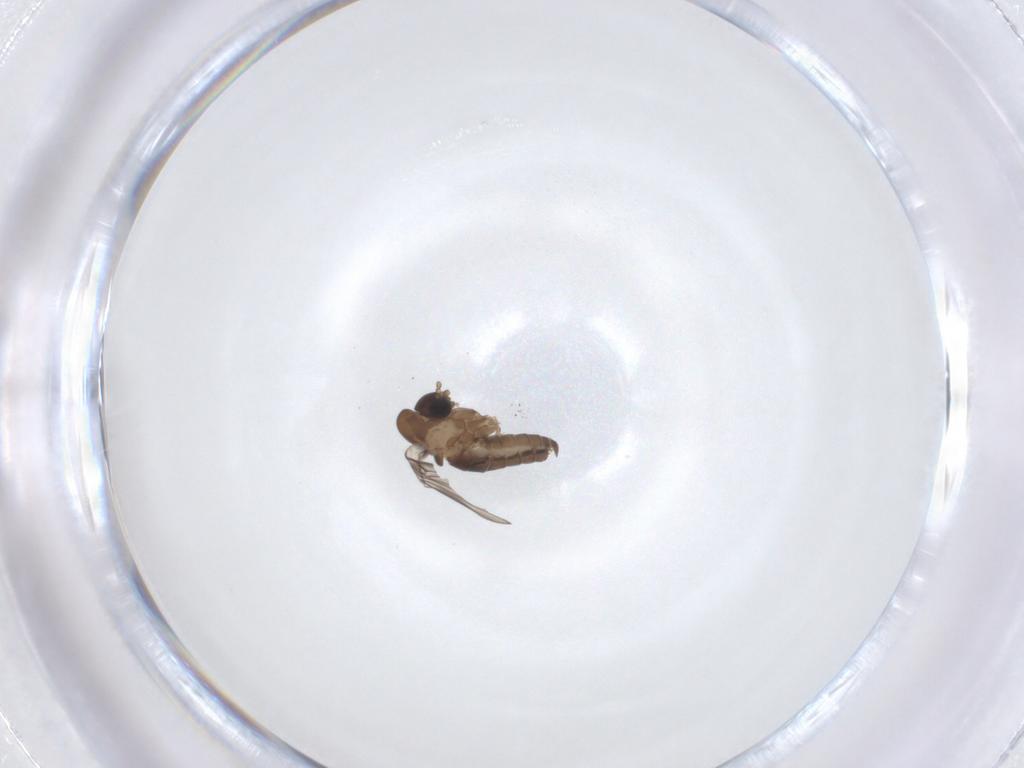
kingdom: Animalia
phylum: Arthropoda
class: Insecta
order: Diptera
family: Psychodidae
